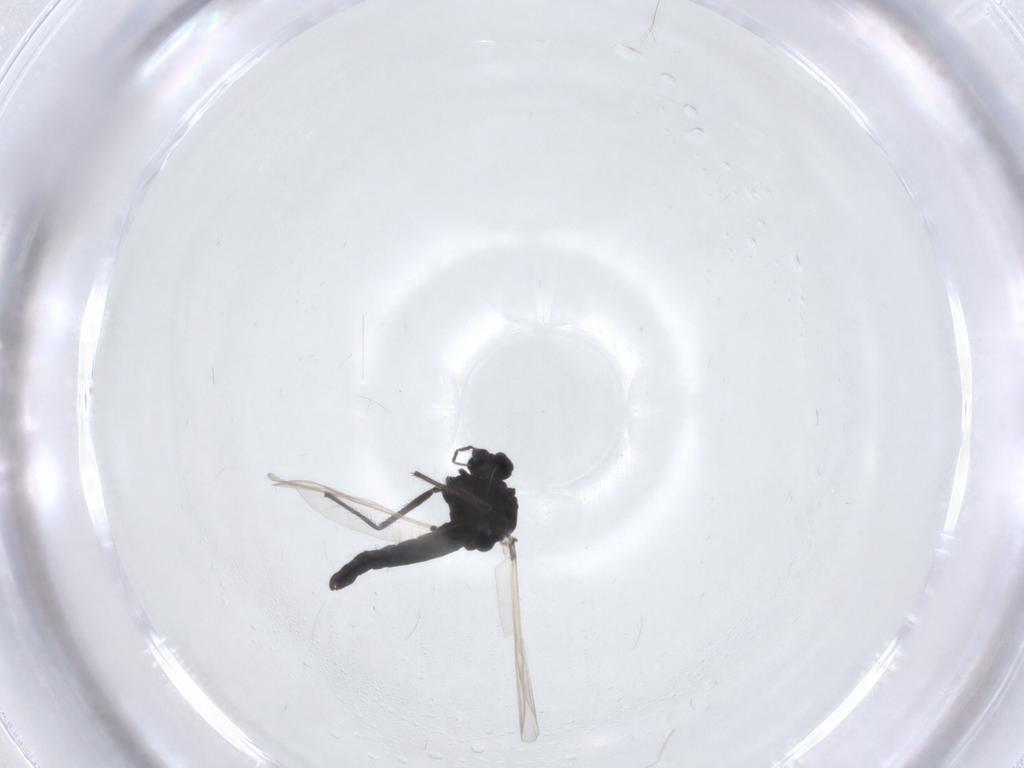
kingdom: Animalia
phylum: Arthropoda
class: Insecta
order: Diptera
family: Chironomidae
